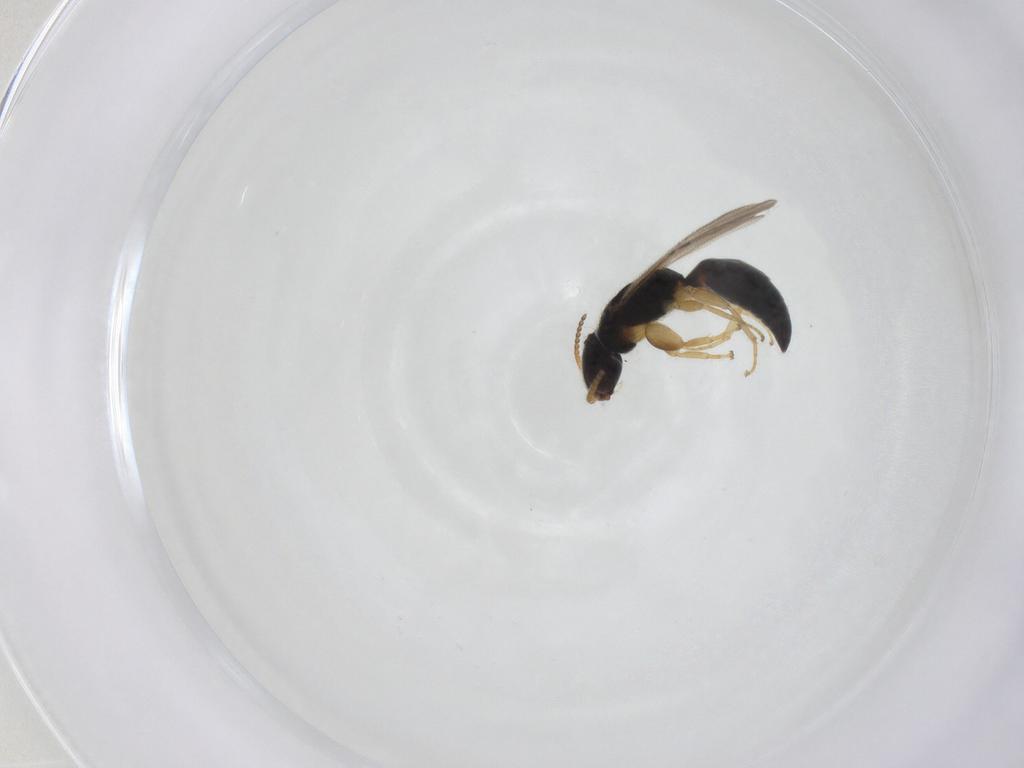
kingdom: Animalia
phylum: Arthropoda
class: Insecta
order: Hymenoptera
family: Bethylidae
